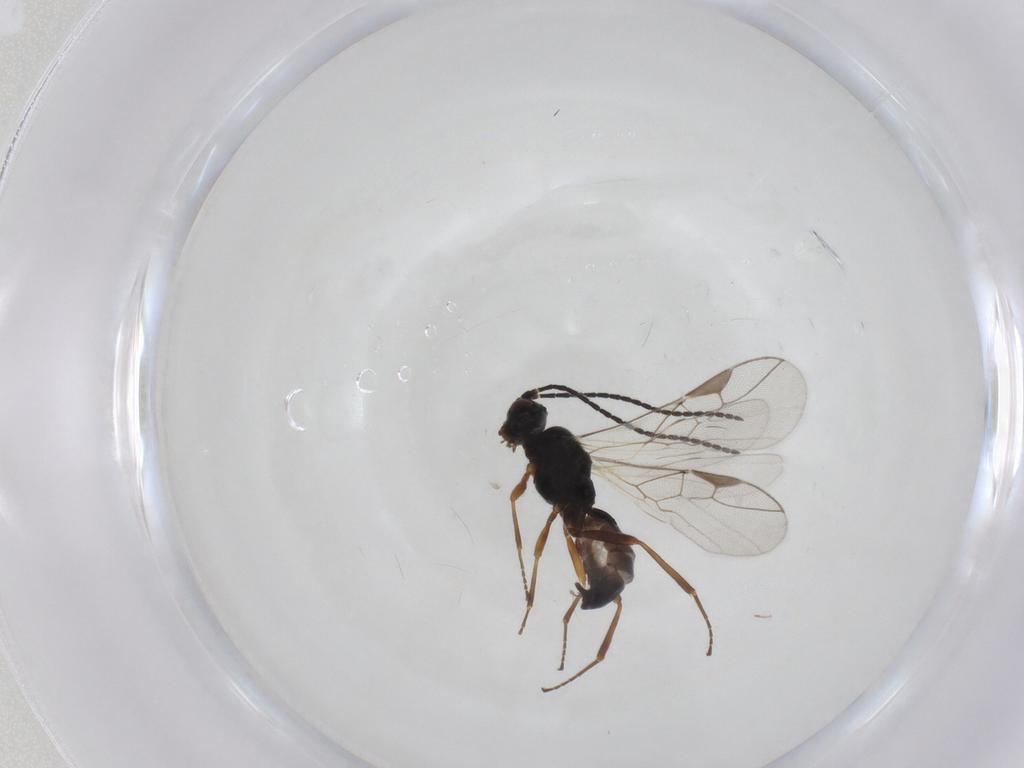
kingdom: Animalia
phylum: Arthropoda
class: Insecta
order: Hymenoptera
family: Braconidae
